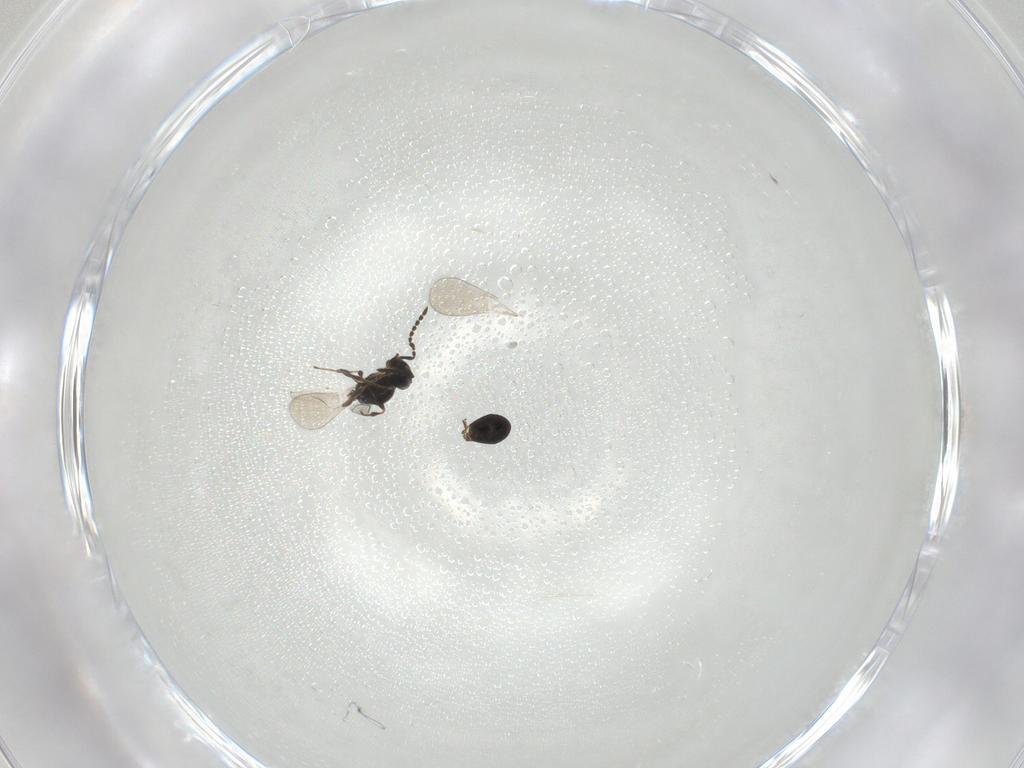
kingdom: Animalia
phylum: Arthropoda
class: Insecta
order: Hymenoptera
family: Platygastridae
